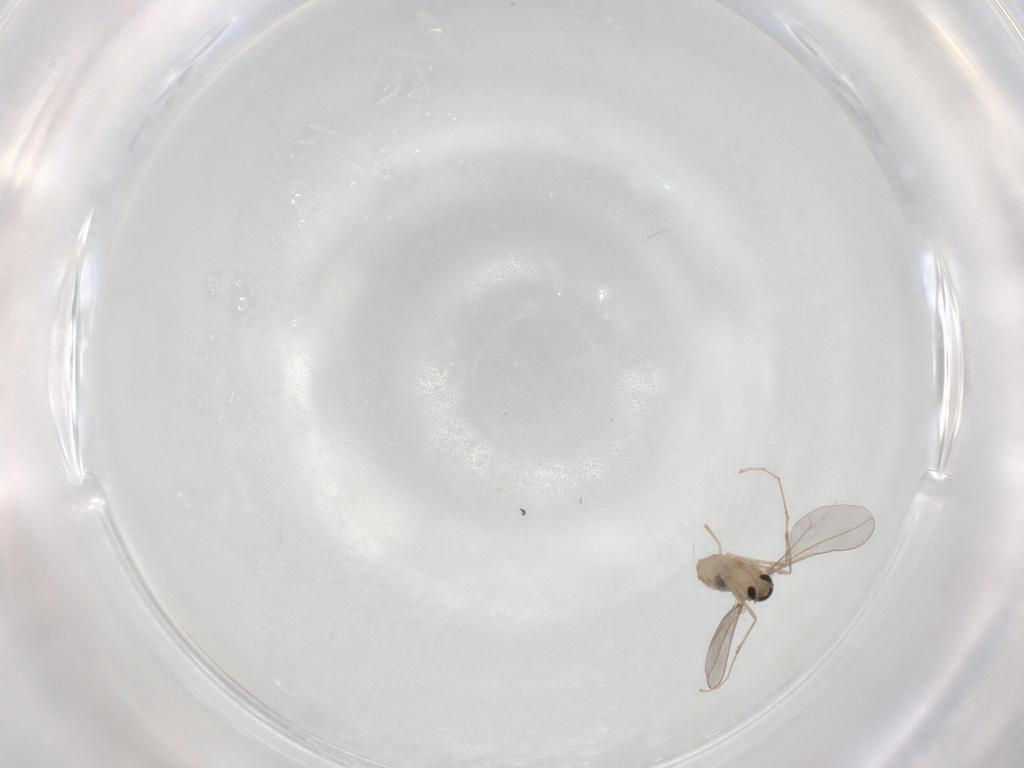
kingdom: Animalia
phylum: Arthropoda
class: Insecta
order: Diptera
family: Cecidomyiidae
